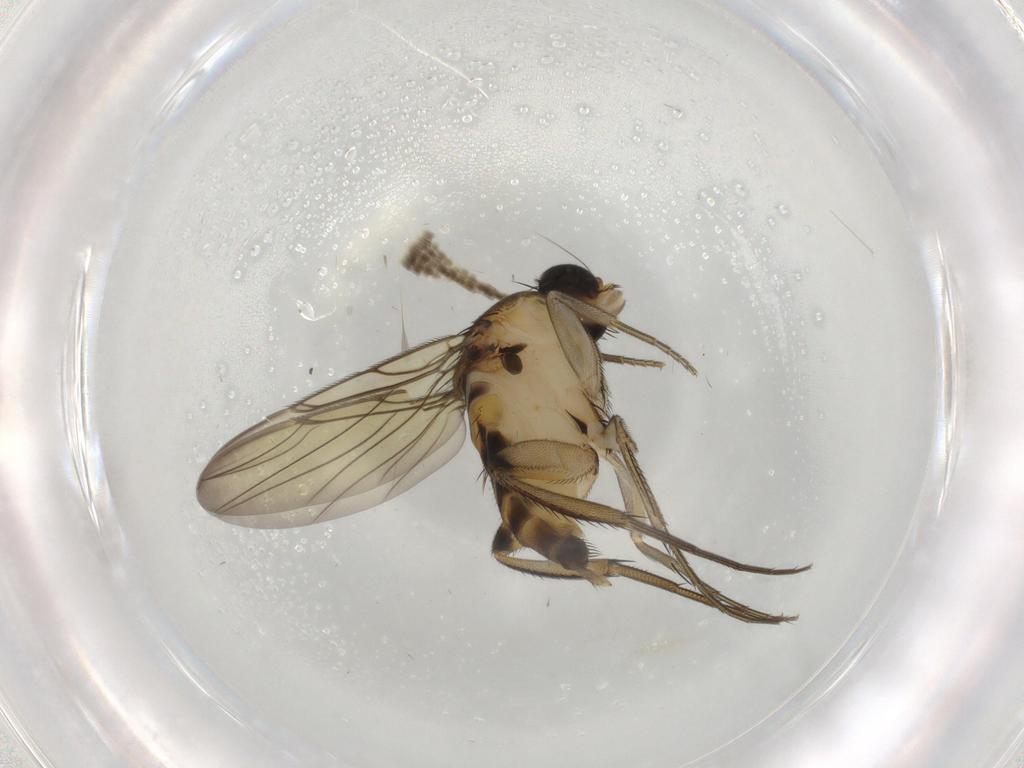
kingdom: Animalia
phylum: Arthropoda
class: Insecta
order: Diptera
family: Phoridae
